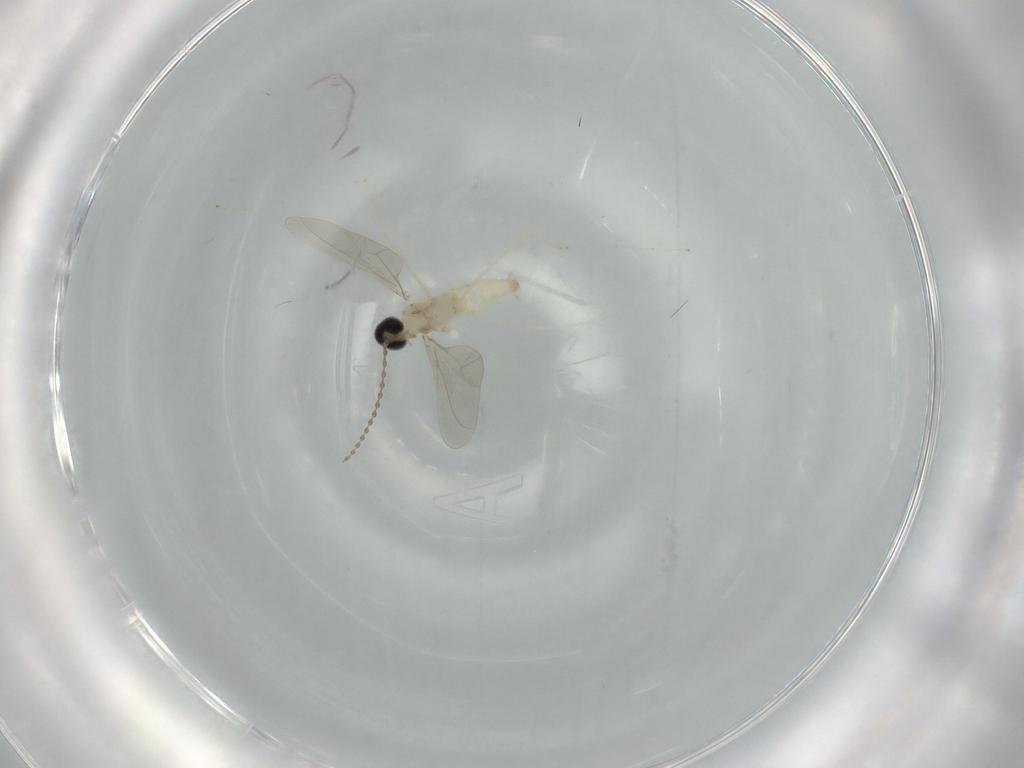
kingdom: Animalia
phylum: Arthropoda
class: Insecta
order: Diptera
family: Cecidomyiidae
